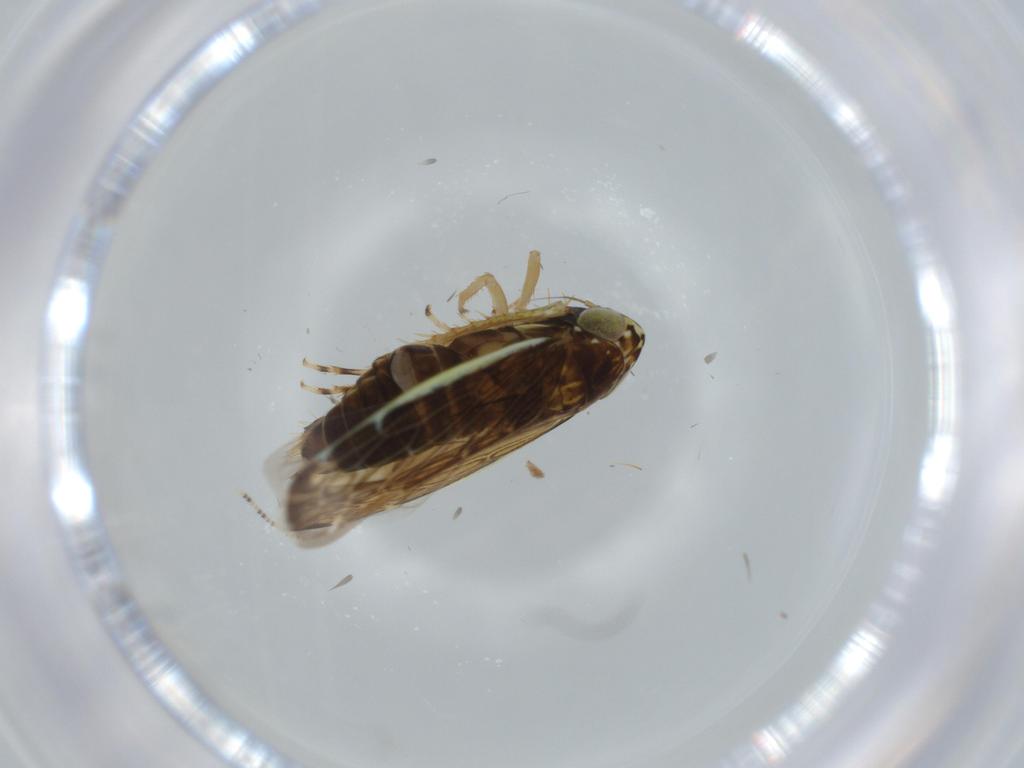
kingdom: Animalia
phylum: Arthropoda
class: Insecta
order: Hemiptera
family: Cicadellidae
